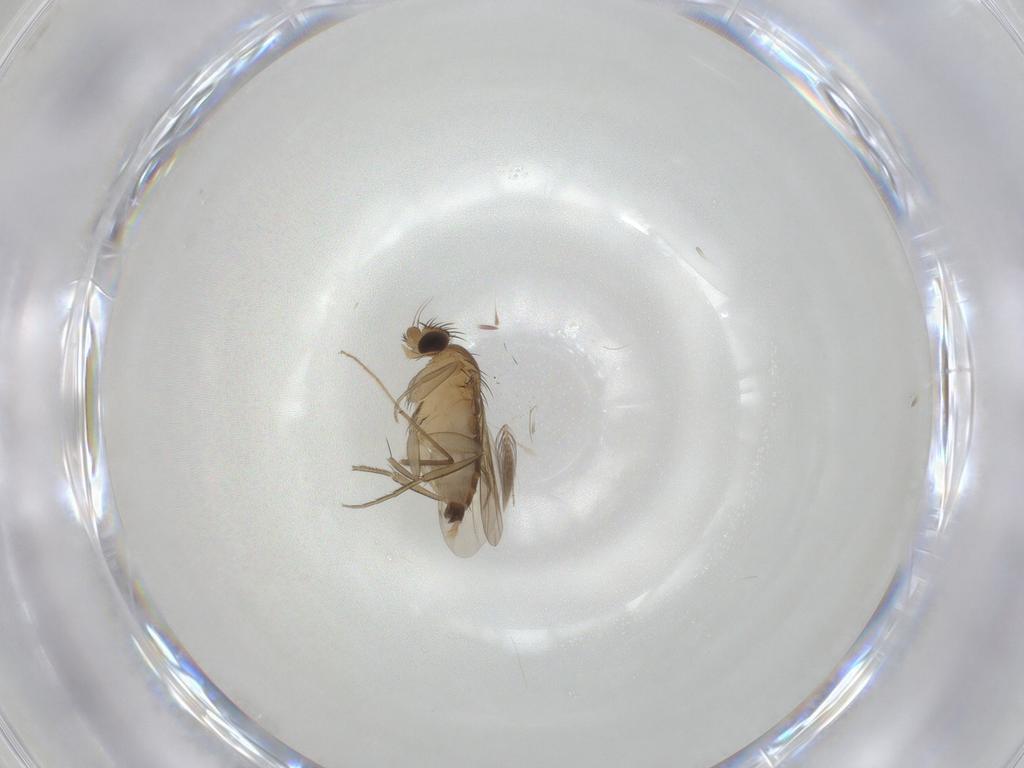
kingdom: Animalia
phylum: Arthropoda
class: Insecta
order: Diptera
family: Ceratopogonidae
